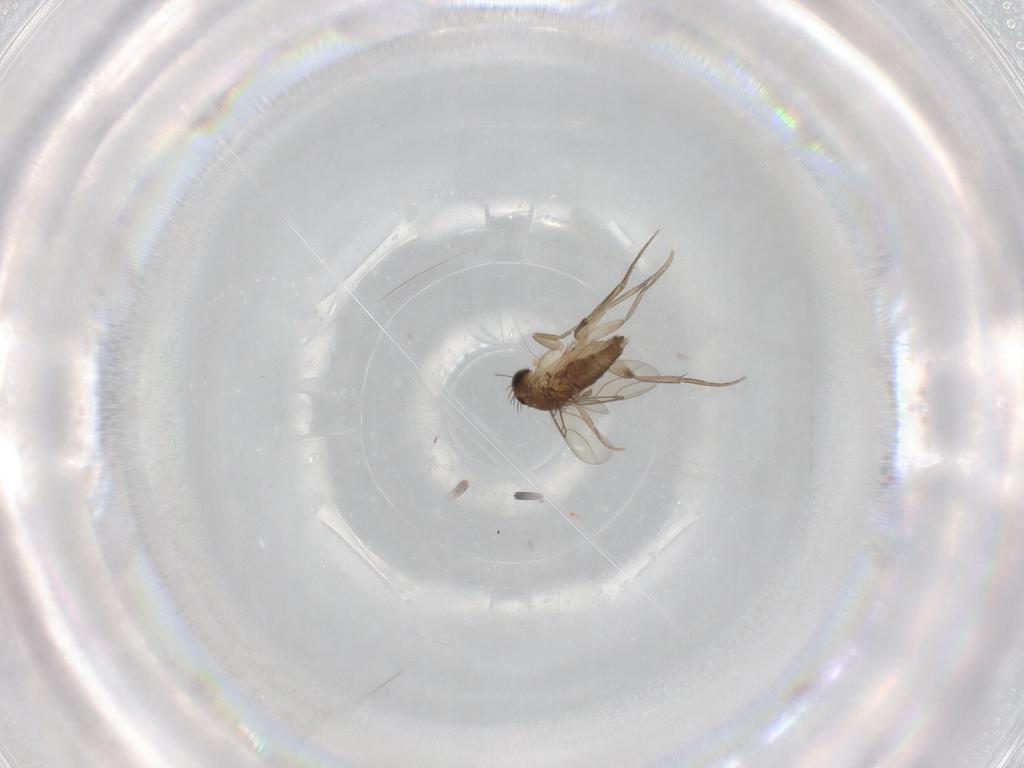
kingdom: Animalia
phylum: Arthropoda
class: Insecta
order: Diptera
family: Phoridae
